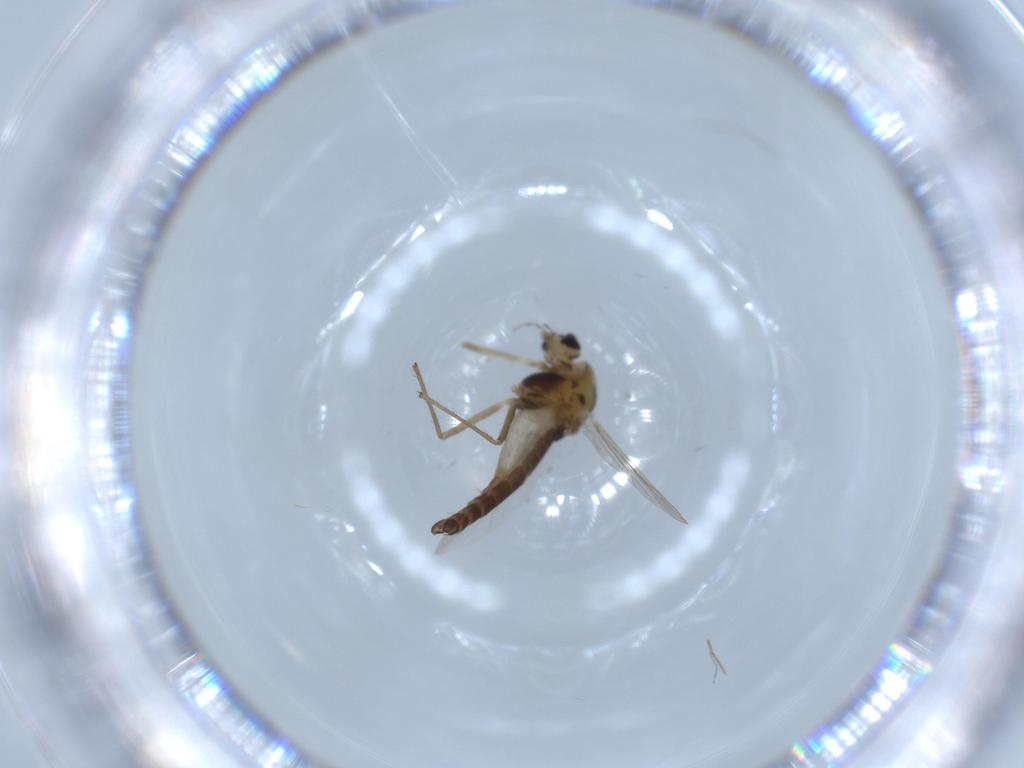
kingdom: Animalia
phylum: Arthropoda
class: Insecta
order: Diptera
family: Chironomidae
